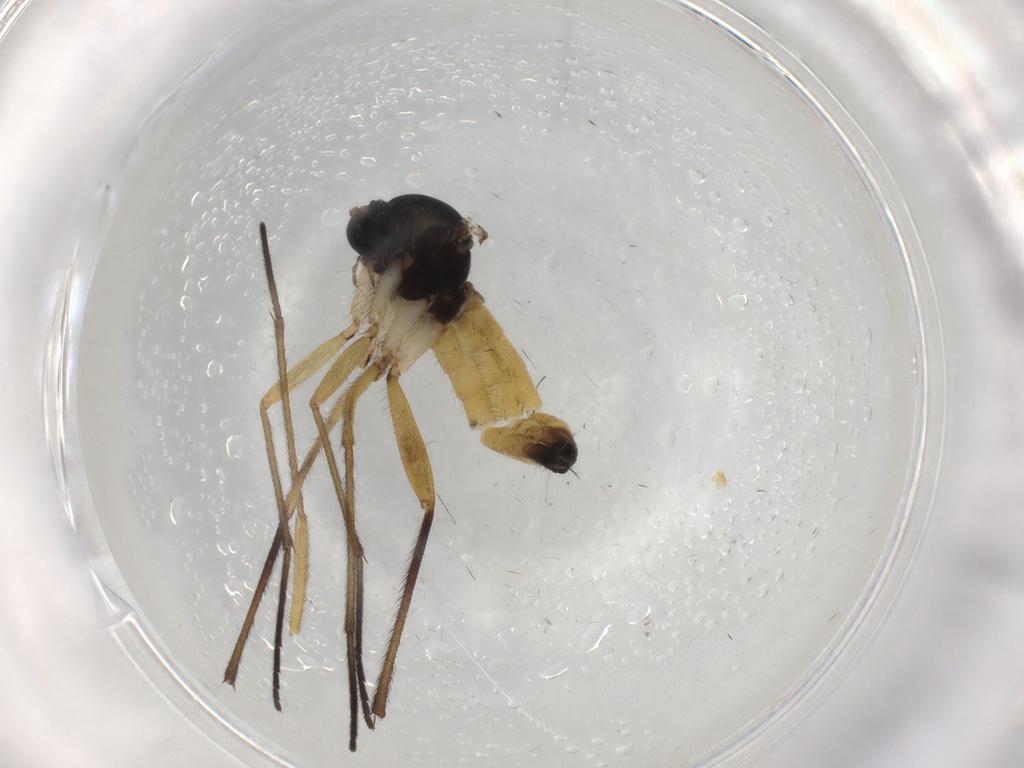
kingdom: Animalia
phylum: Arthropoda
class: Insecta
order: Diptera
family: Sciaridae
